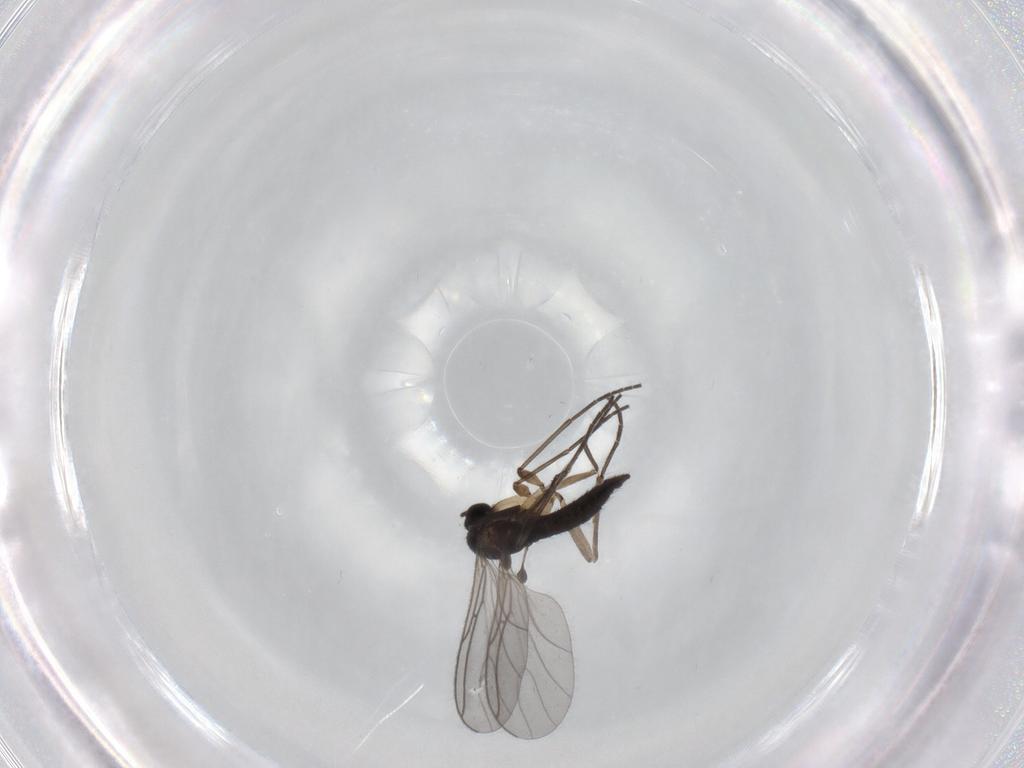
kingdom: Animalia
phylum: Arthropoda
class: Insecta
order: Diptera
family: Sciaridae
